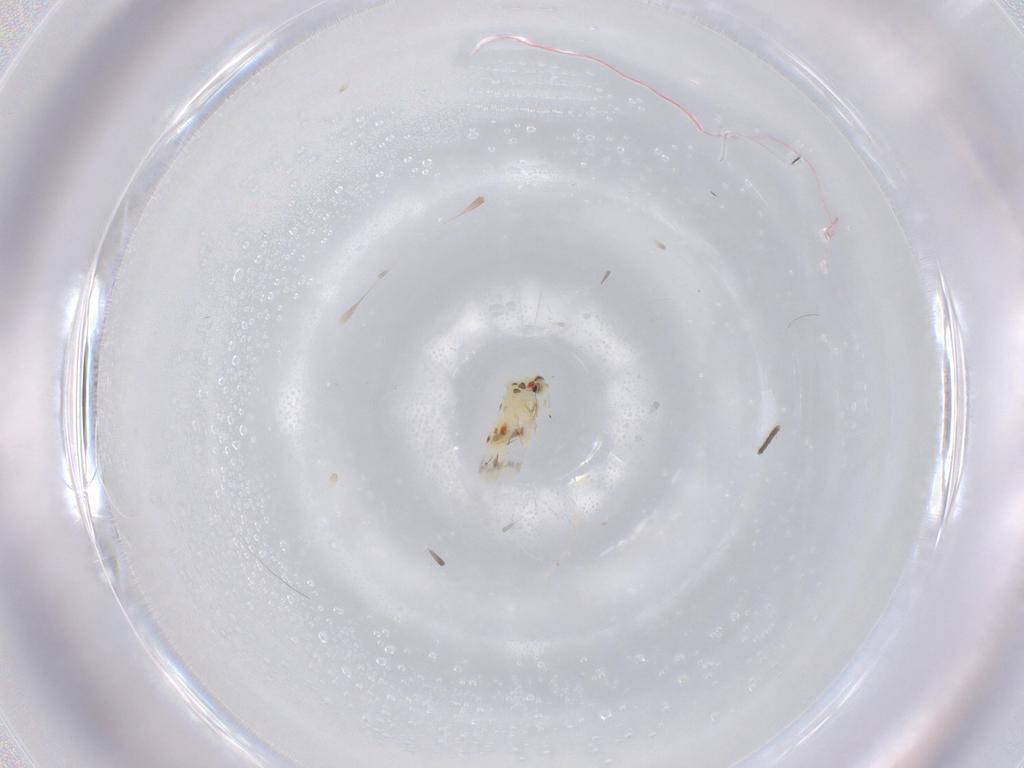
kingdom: Animalia
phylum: Arthropoda
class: Insecta
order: Hemiptera
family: Aleyrodidae
